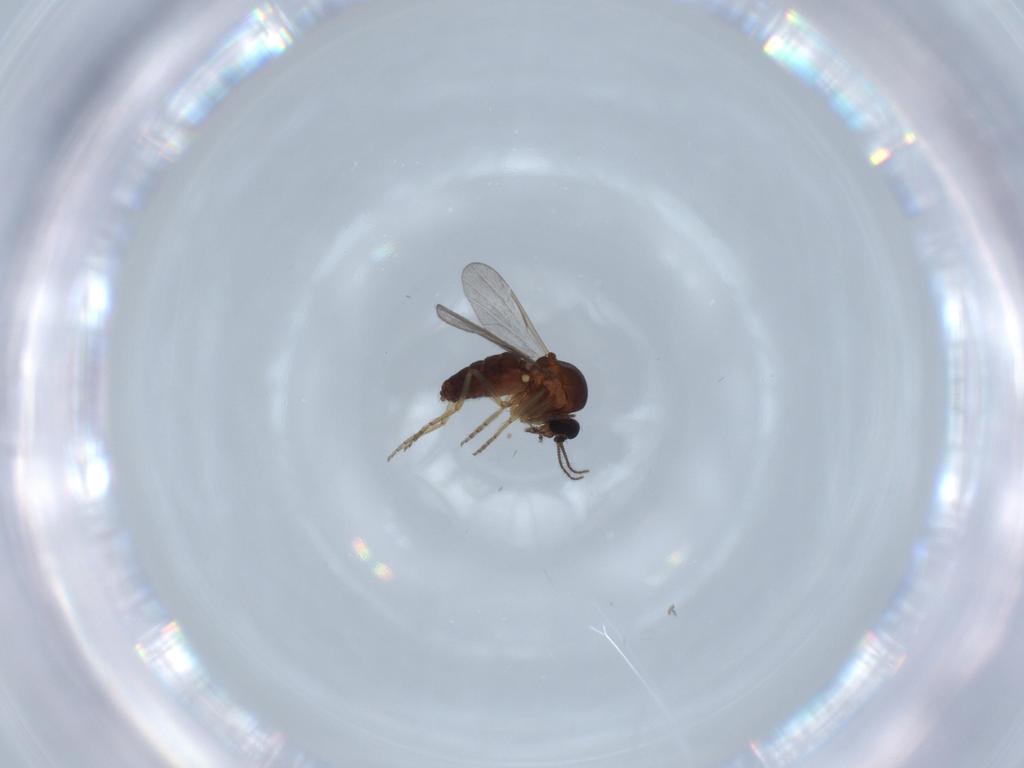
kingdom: Animalia
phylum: Arthropoda
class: Insecta
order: Diptera
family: Ceratopogonidae
